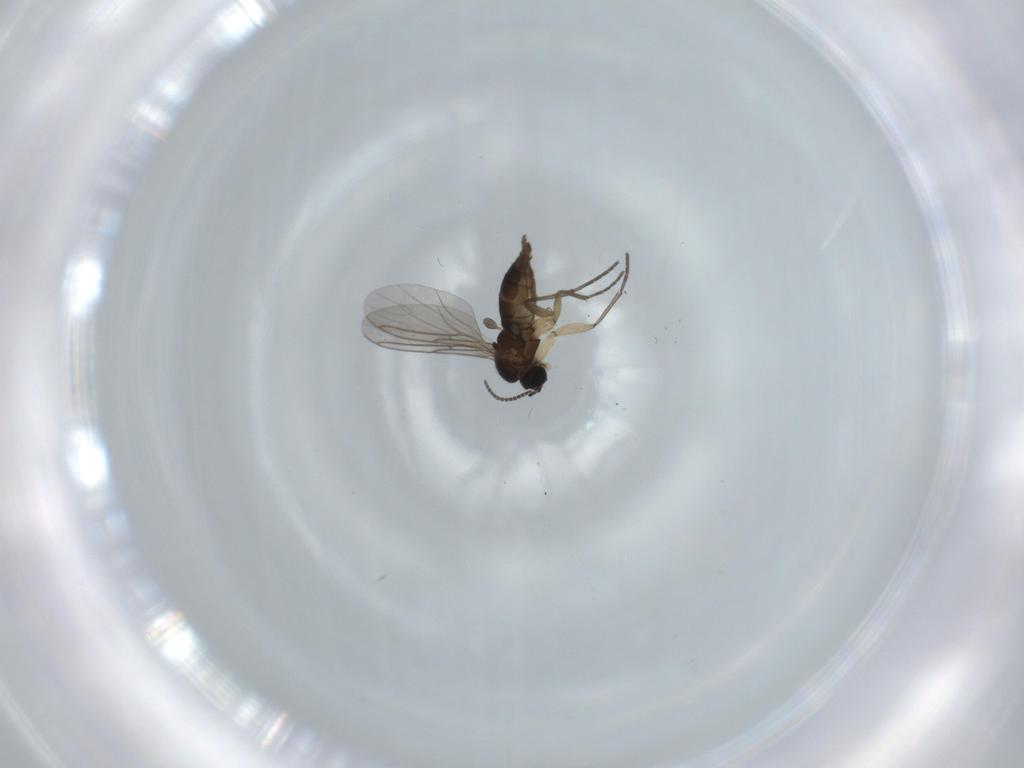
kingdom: Animalia
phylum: Arthropoda
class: Insecta
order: Diptera
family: Sciaridae
